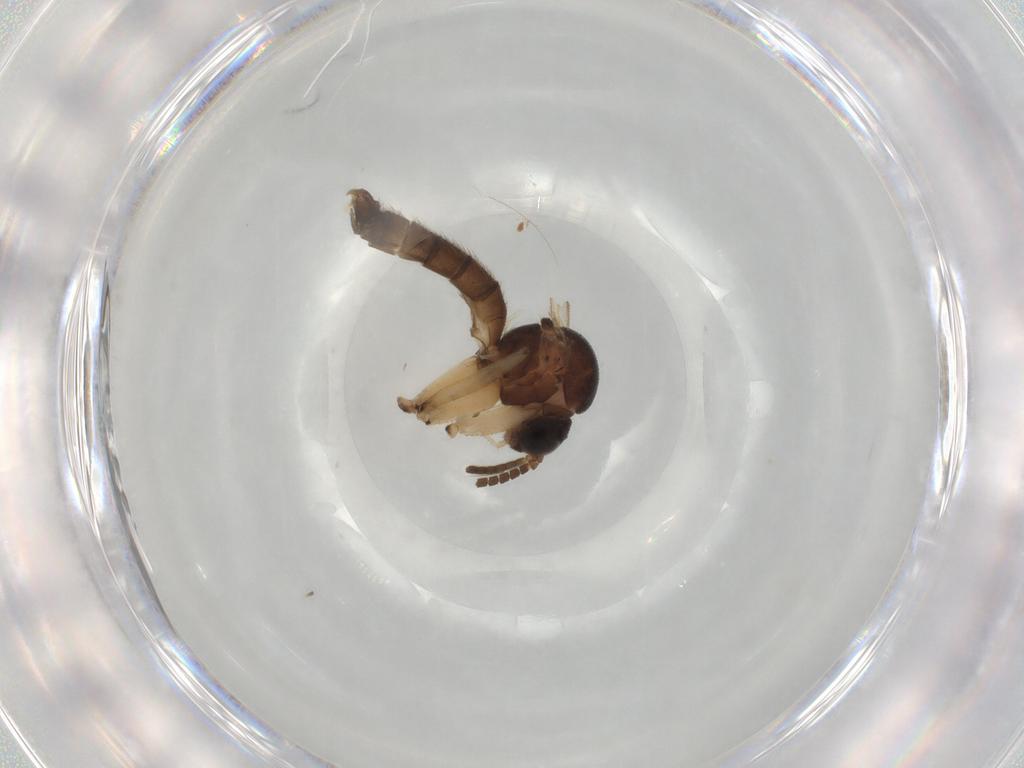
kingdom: Animalia
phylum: Arthropoda
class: Insecta
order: Diptera
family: Mycetophilidae
